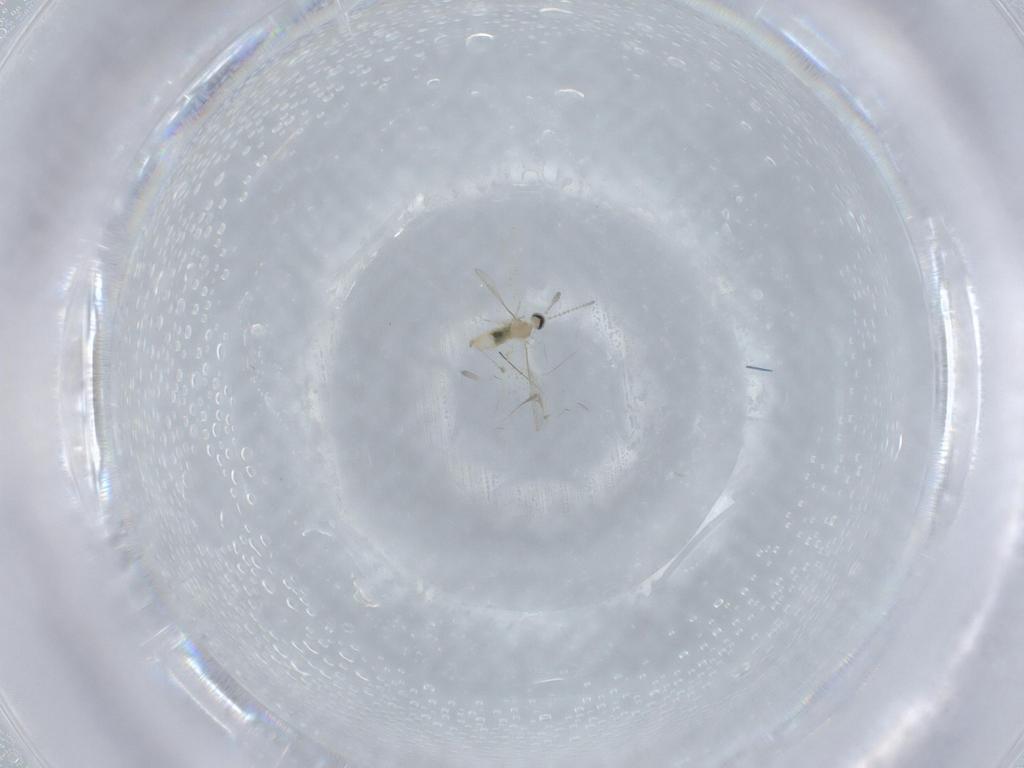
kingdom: Animalia
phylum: Arthropoda
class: Insecta
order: Diptera
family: Cecidomyiidae
